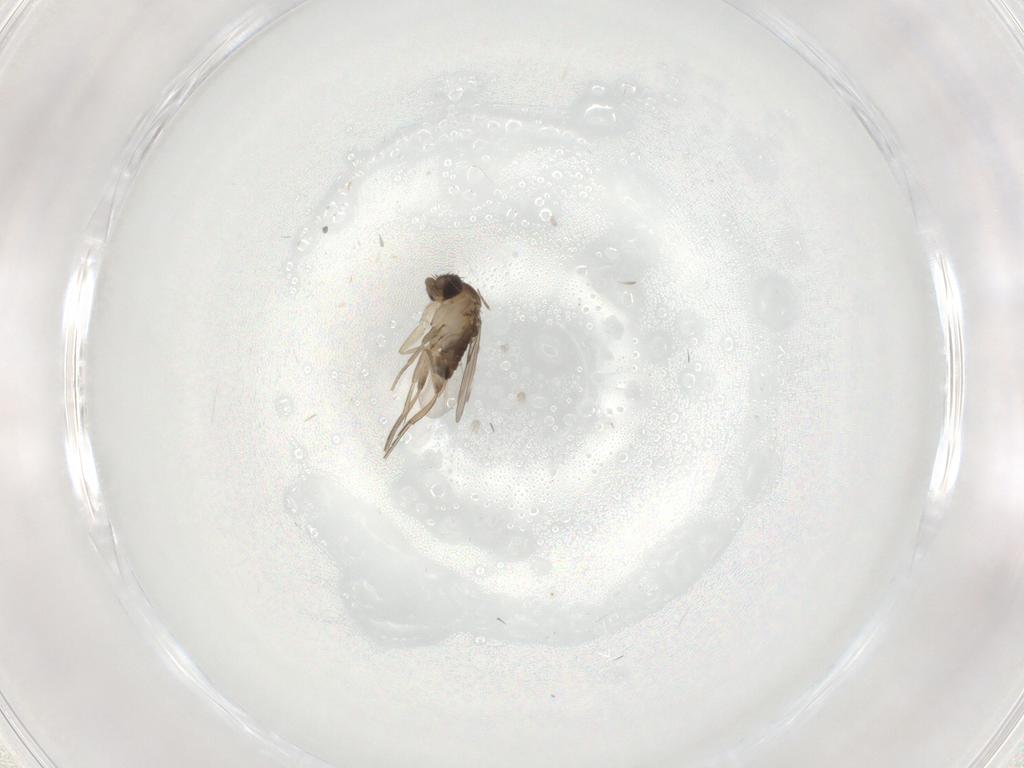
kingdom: Animalia
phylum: Arthropoda
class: Insecta
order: Diptera
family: Phoridae
